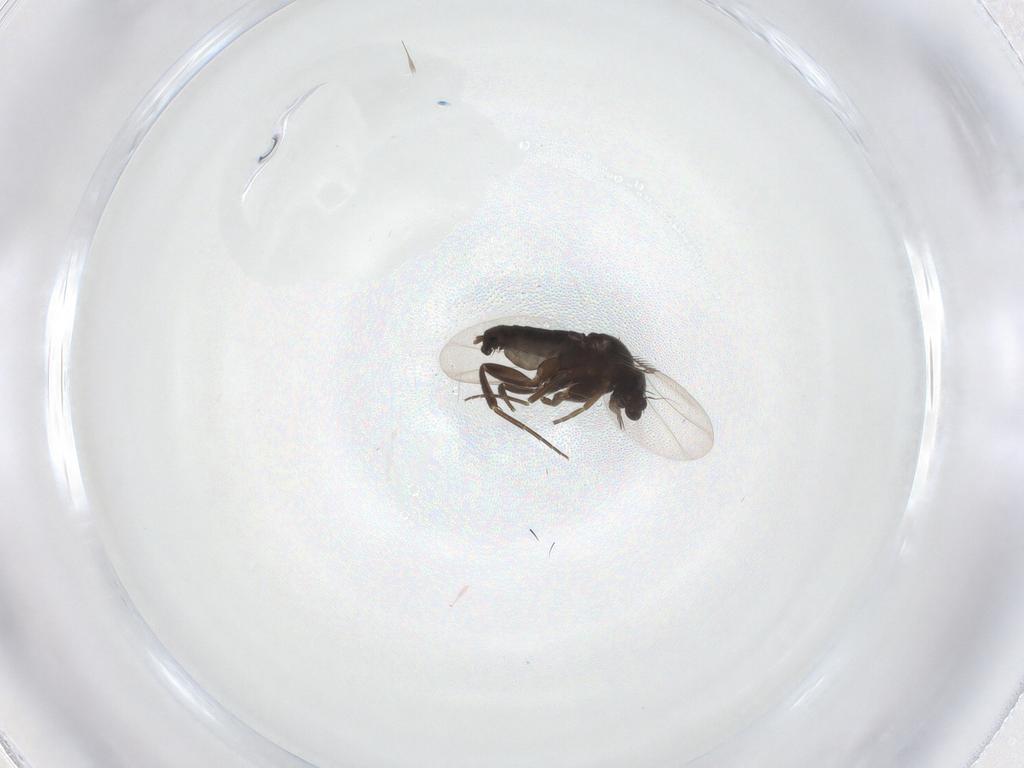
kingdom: Animalia
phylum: Arthropoda
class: Insecta
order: Diptera
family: Phoridae
